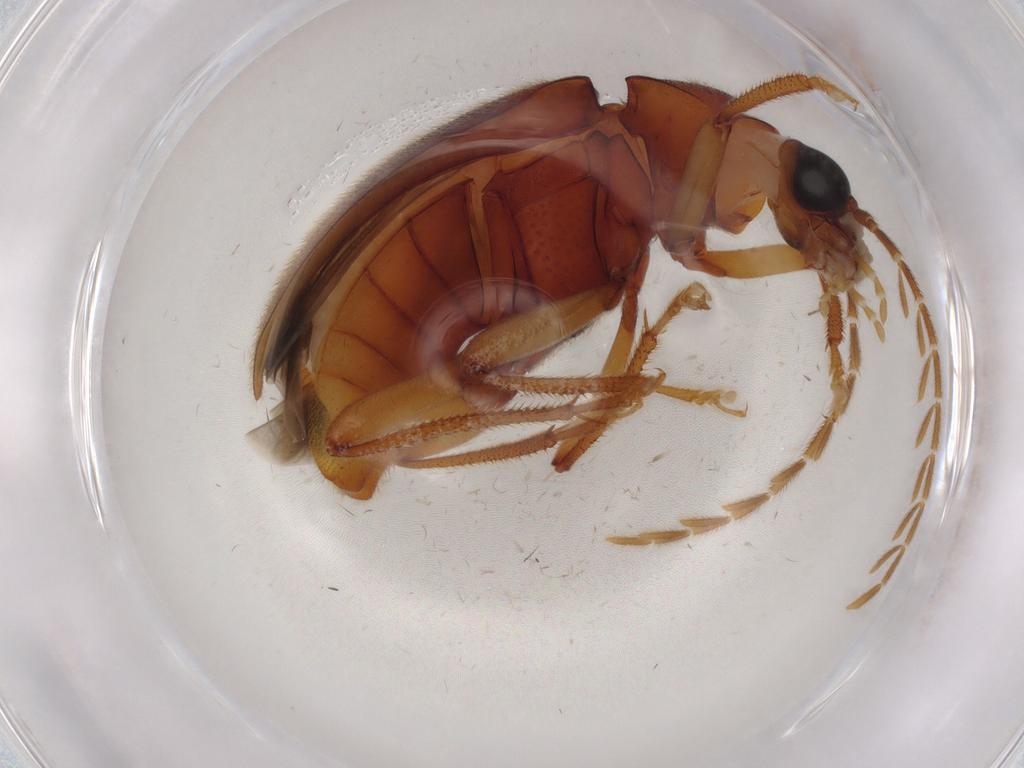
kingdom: Animalia
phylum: Arthropoda
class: Insecta
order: Coleoptera
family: Ptilodactylidae
